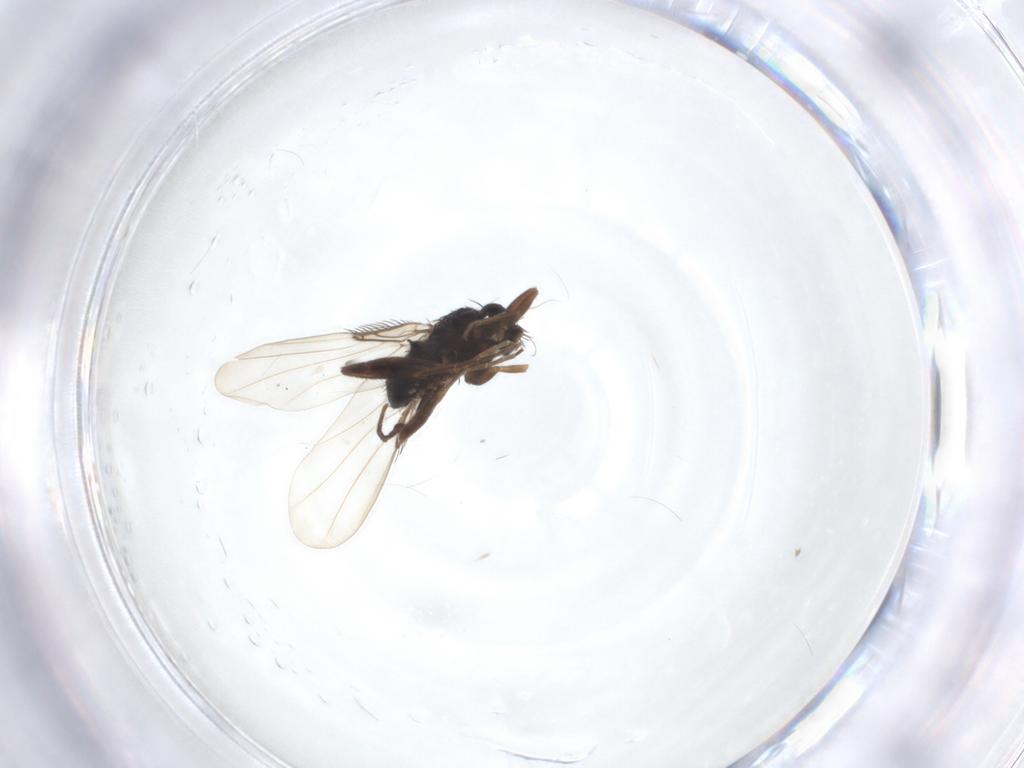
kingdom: Animalia
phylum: Arthropoda
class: Insecta
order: Diptera
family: Phoridae
